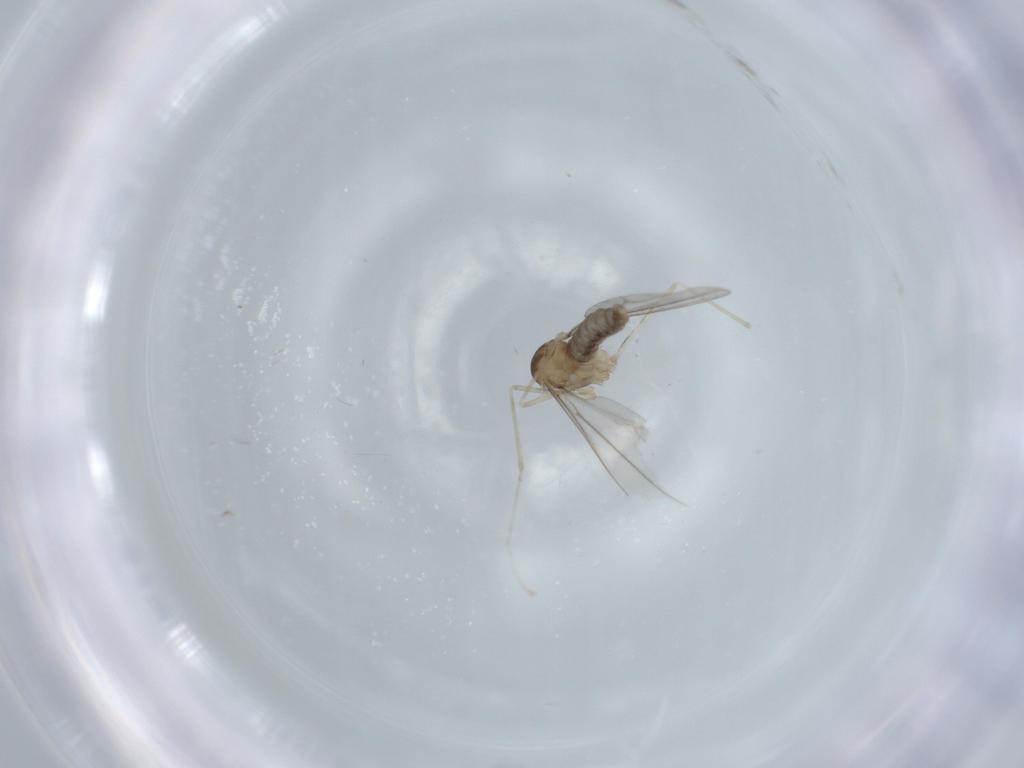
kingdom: Animalia
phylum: Arthropoda
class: Insecta
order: Diptera
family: Cecidomyiidae
